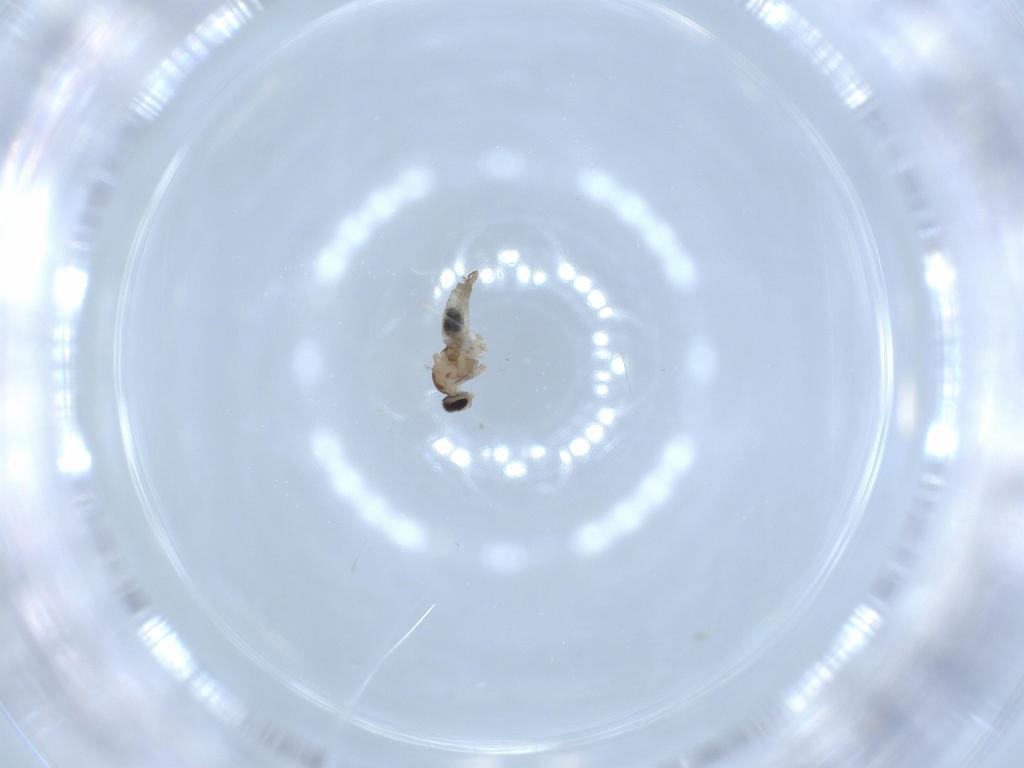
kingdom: Animalia
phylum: Arthropoda
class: Insecta
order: Diptera
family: Cecidomyiidae
